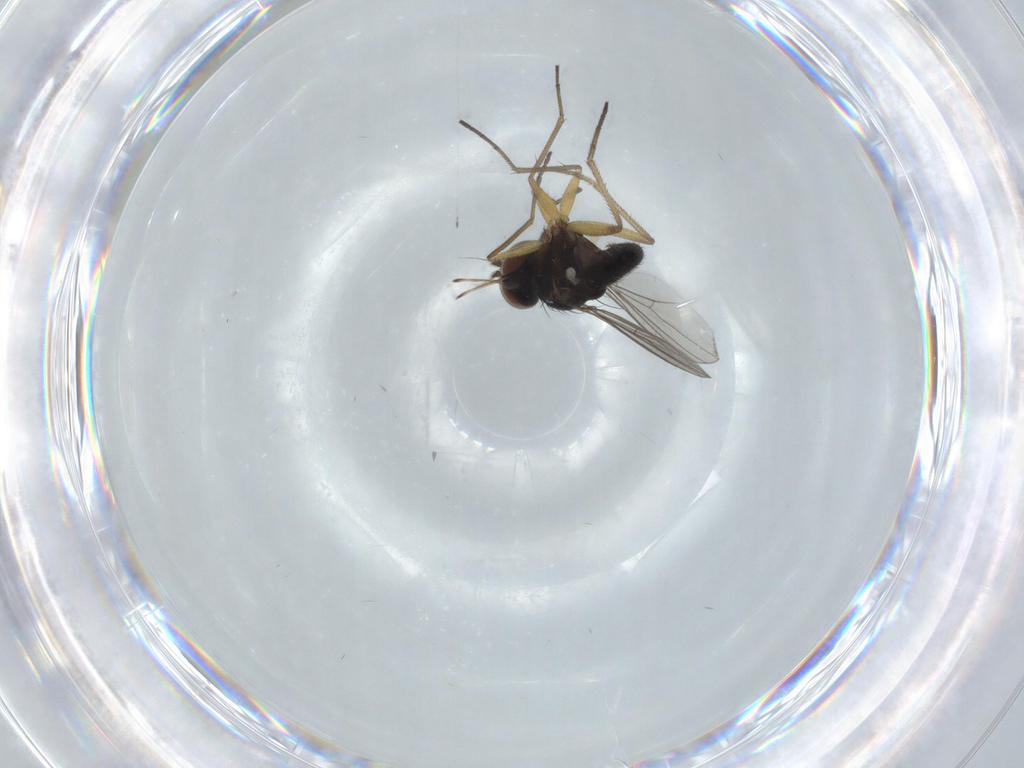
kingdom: Animalia
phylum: Arthropoda
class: Insecta
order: Diptera
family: Dolichopodidae
